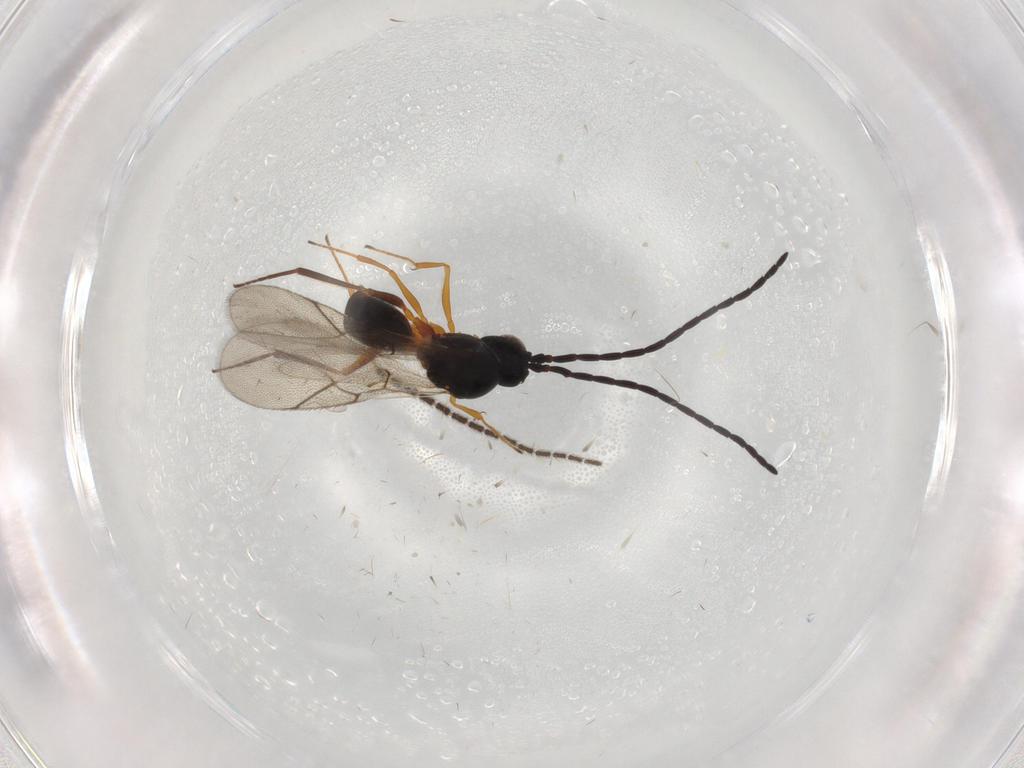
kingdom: Animalia
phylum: Arthropoda
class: Insecta
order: Hymenoptera
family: Figitidae
